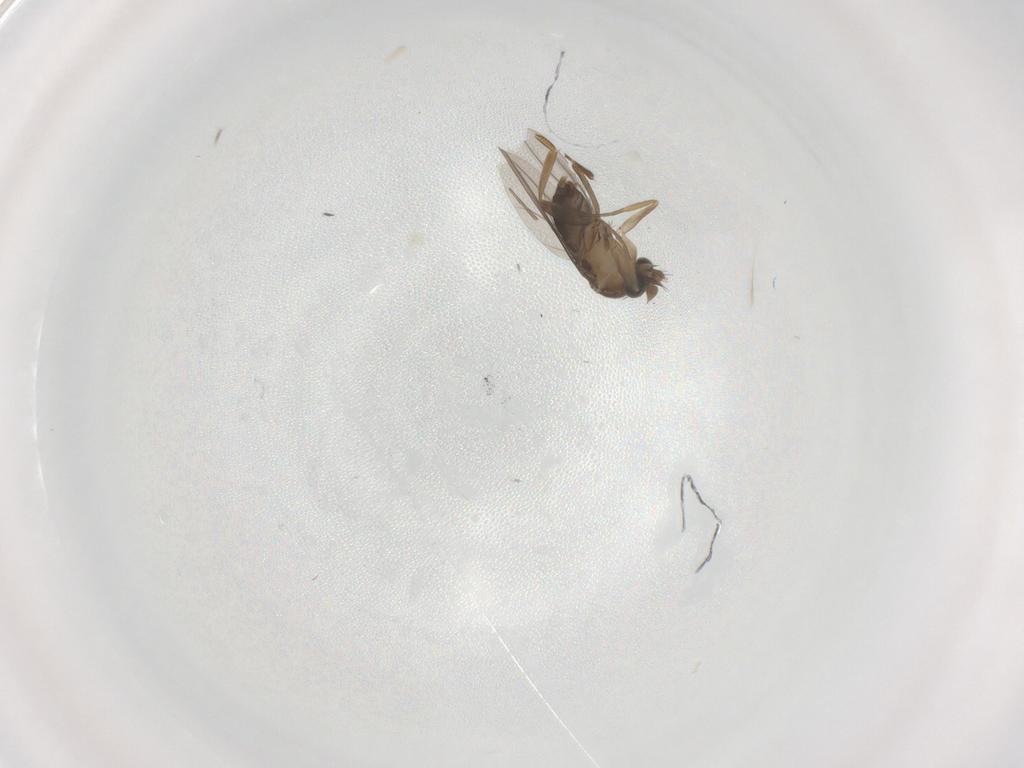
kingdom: Animalia
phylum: Arthropoda
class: Insecta
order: Diptera
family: Phoridae
